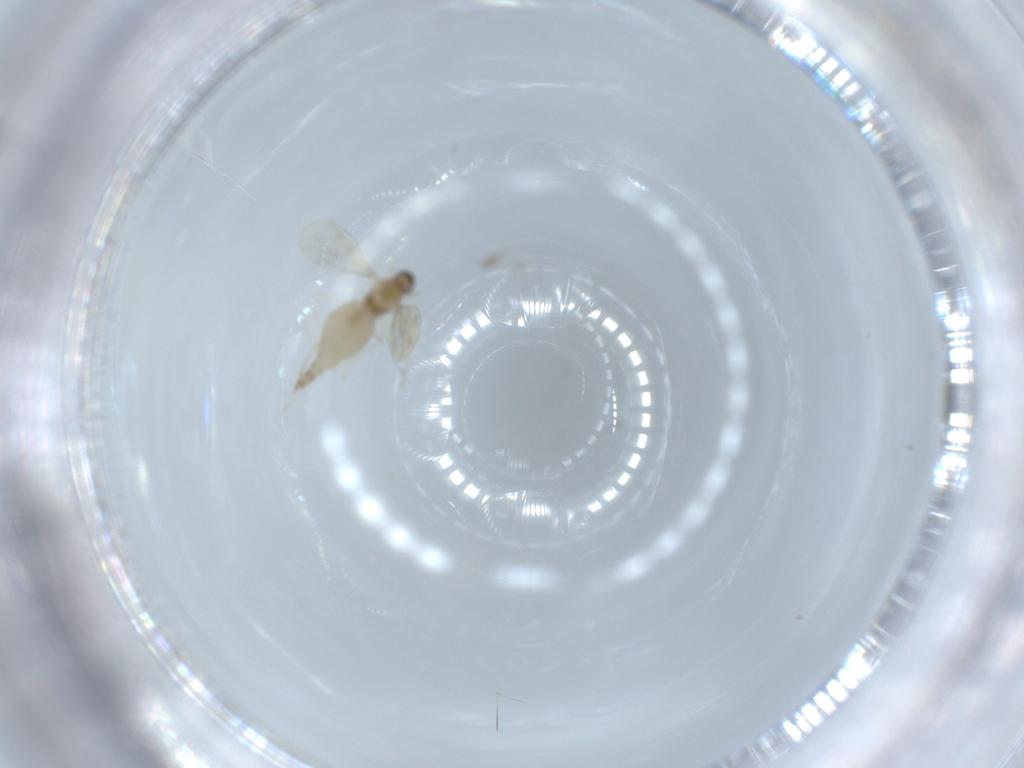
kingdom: Animalia
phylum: Arthropoda
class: Insecta
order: Diptera
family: Cecidomyiidae
